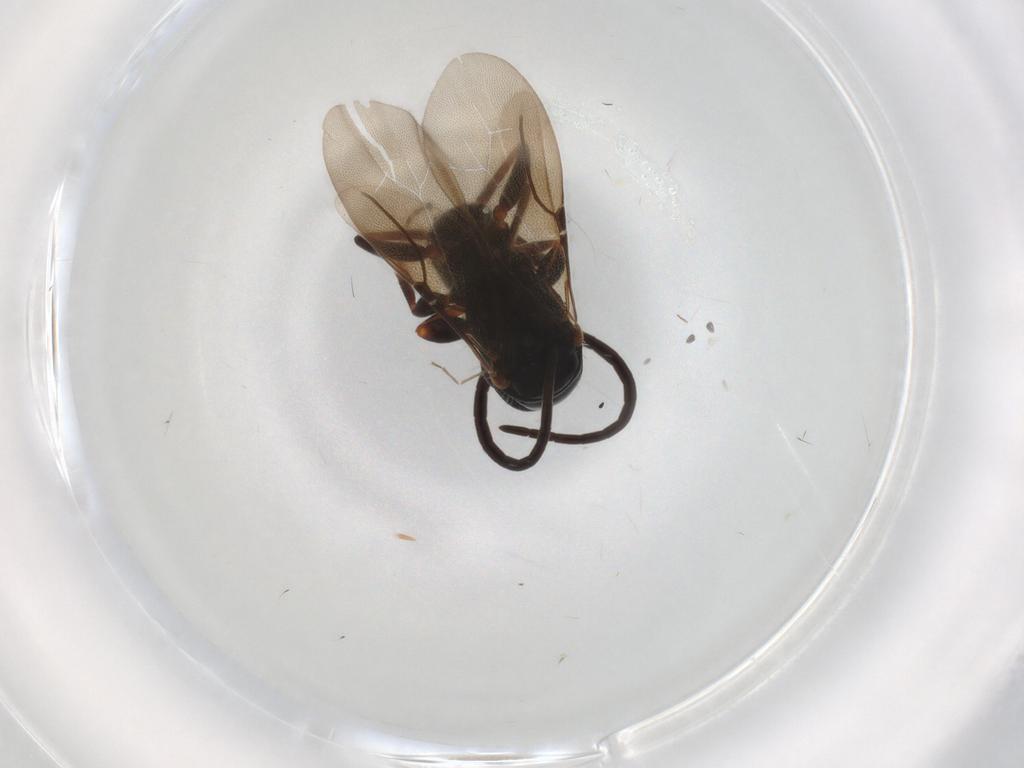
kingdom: Animalia
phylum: Arthropoda
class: Insecta
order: Hymenoptera
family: Bethylidae
